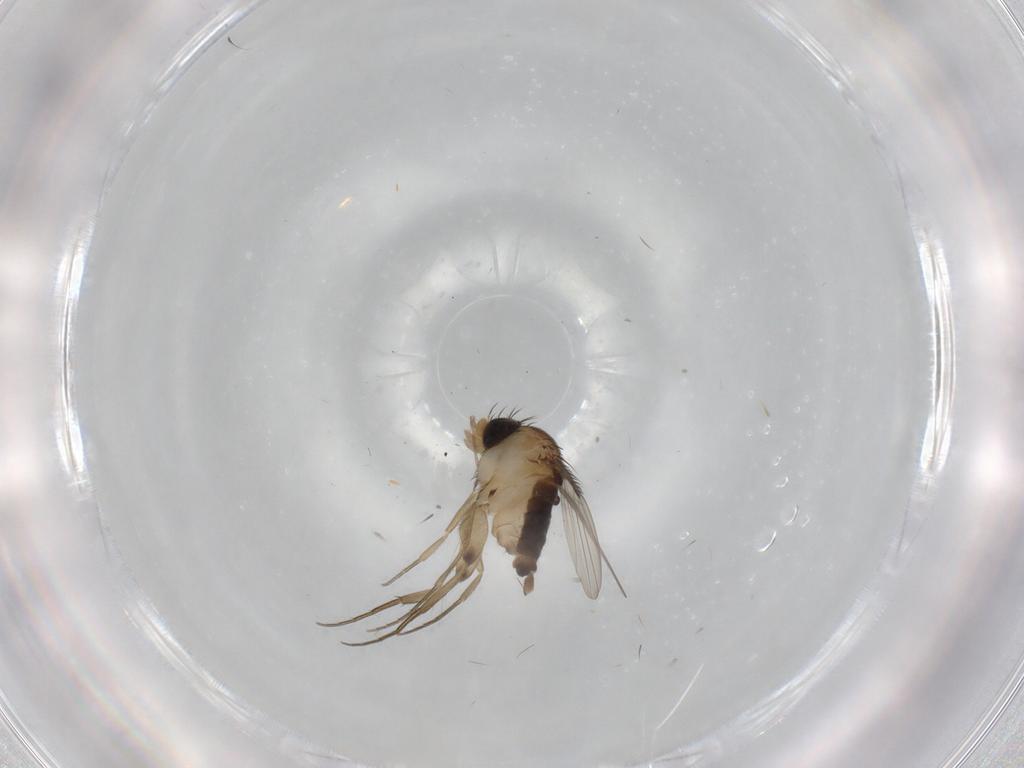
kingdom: Animalia
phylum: Arthropoda
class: Insecta
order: Diptera
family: Phoridae
